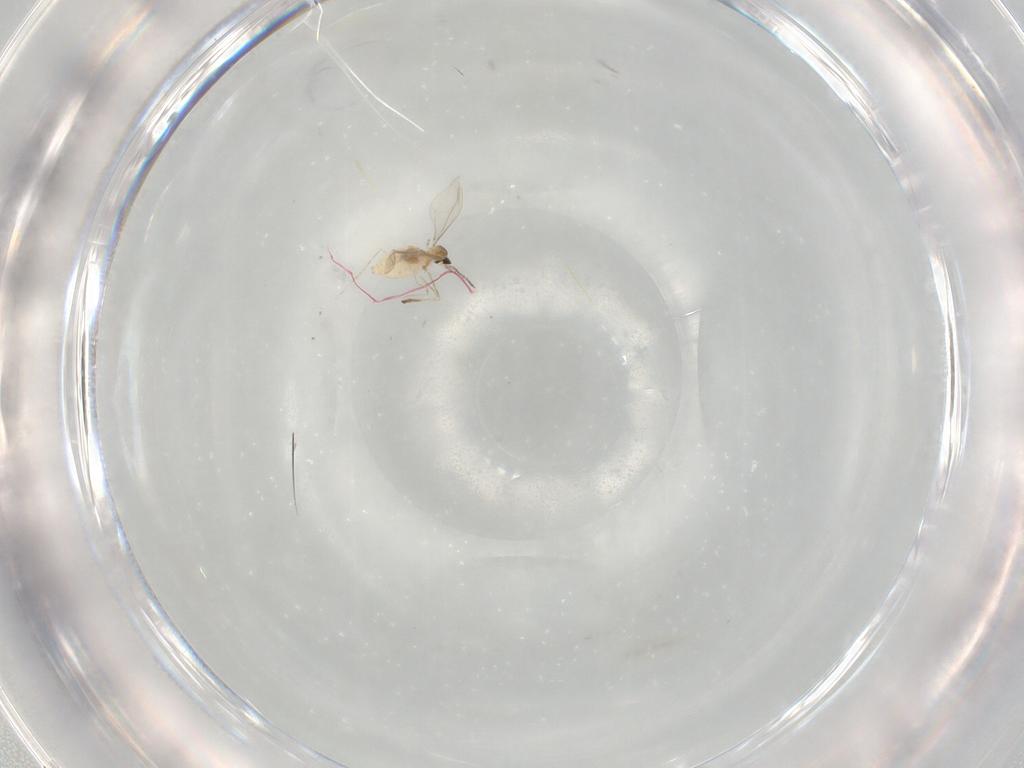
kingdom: Animalia
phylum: Arthropoda
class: Insecta
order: Diptera
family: Cecidomyiidae
